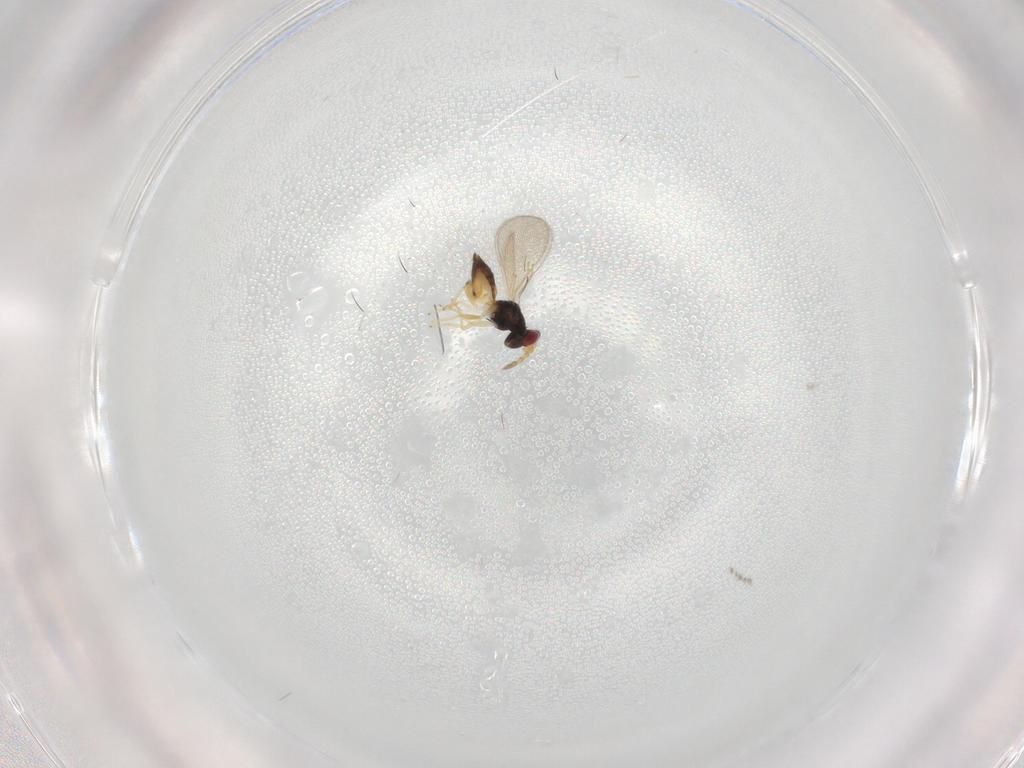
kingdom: Animalia
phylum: Arthropoda
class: Insecta
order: Hymenoptera
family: Eulophidae
